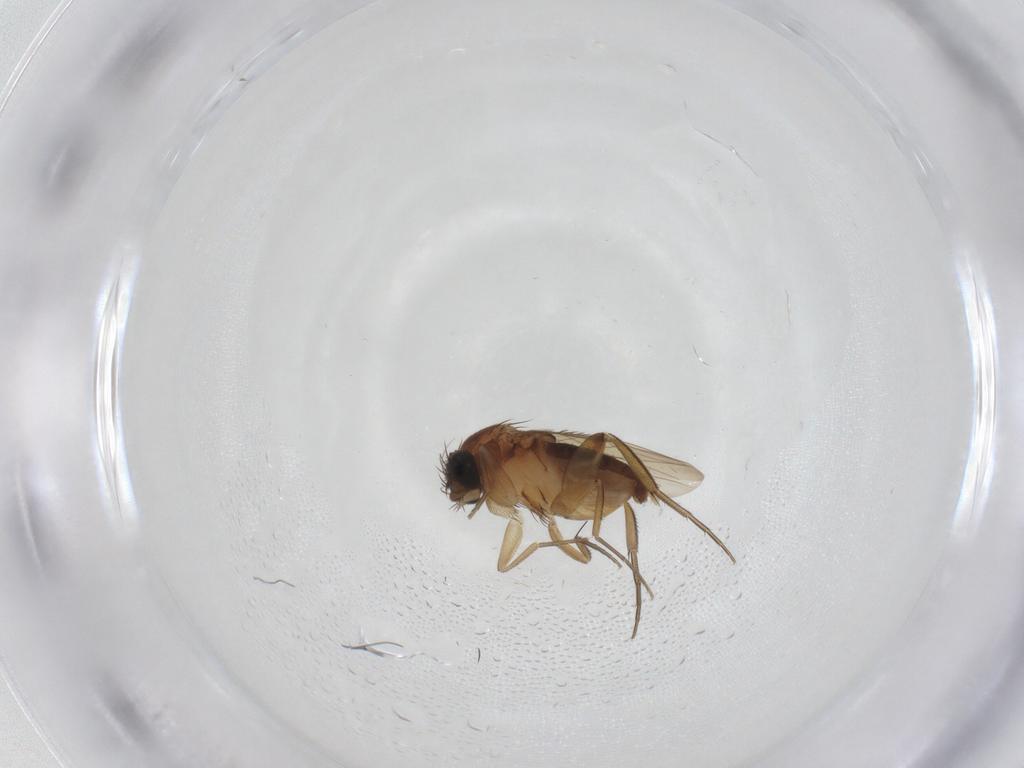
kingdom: Animalia
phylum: Arthropoda
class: Insecta
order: Diptera
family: Phoridae
